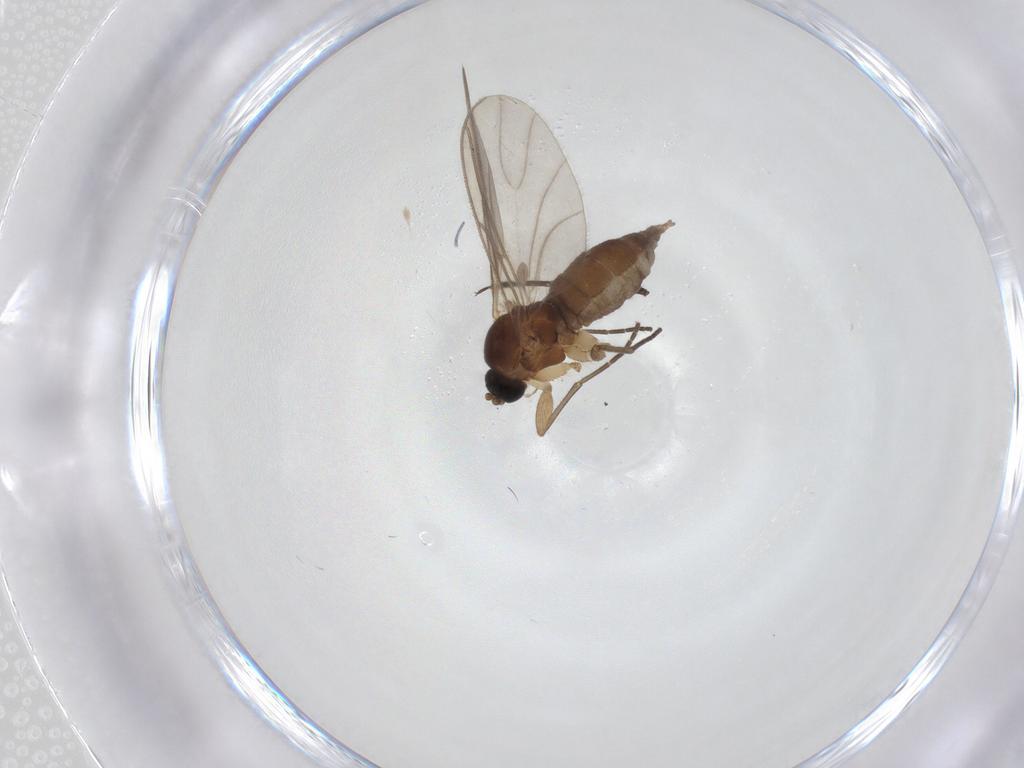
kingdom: Animalia
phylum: Arthropoda
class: Insecta
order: Diptera
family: Sciaridae
